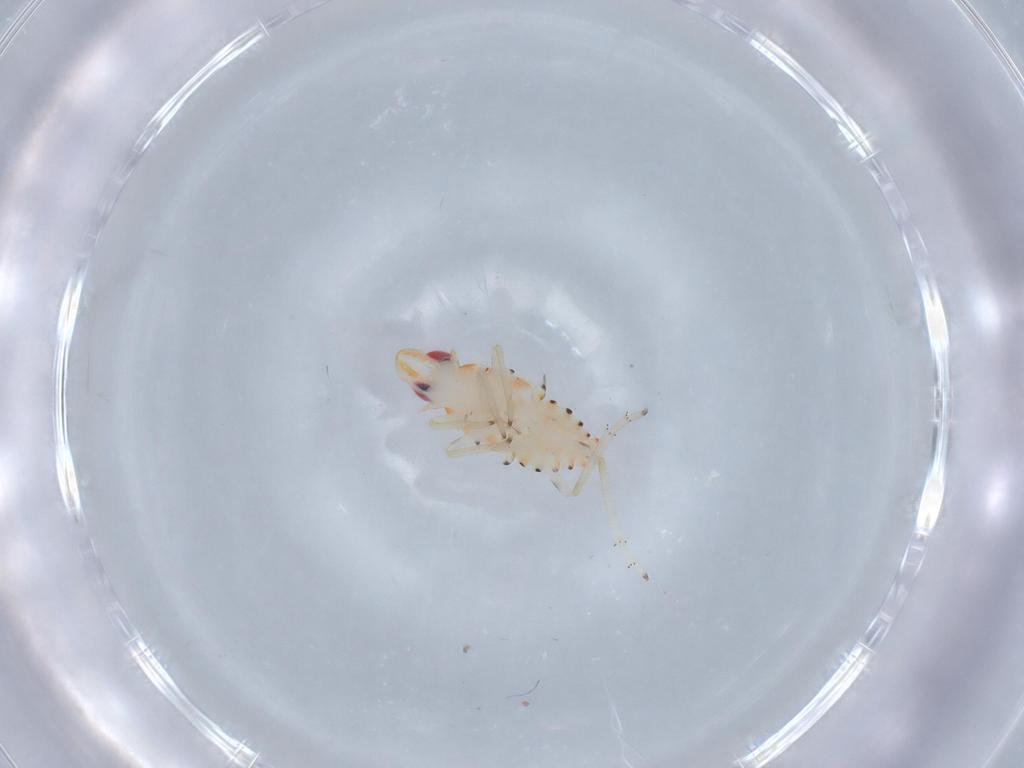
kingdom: Animalia
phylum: Arthropoda
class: Insecta
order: Hemiptera
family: Tropiduchidae
